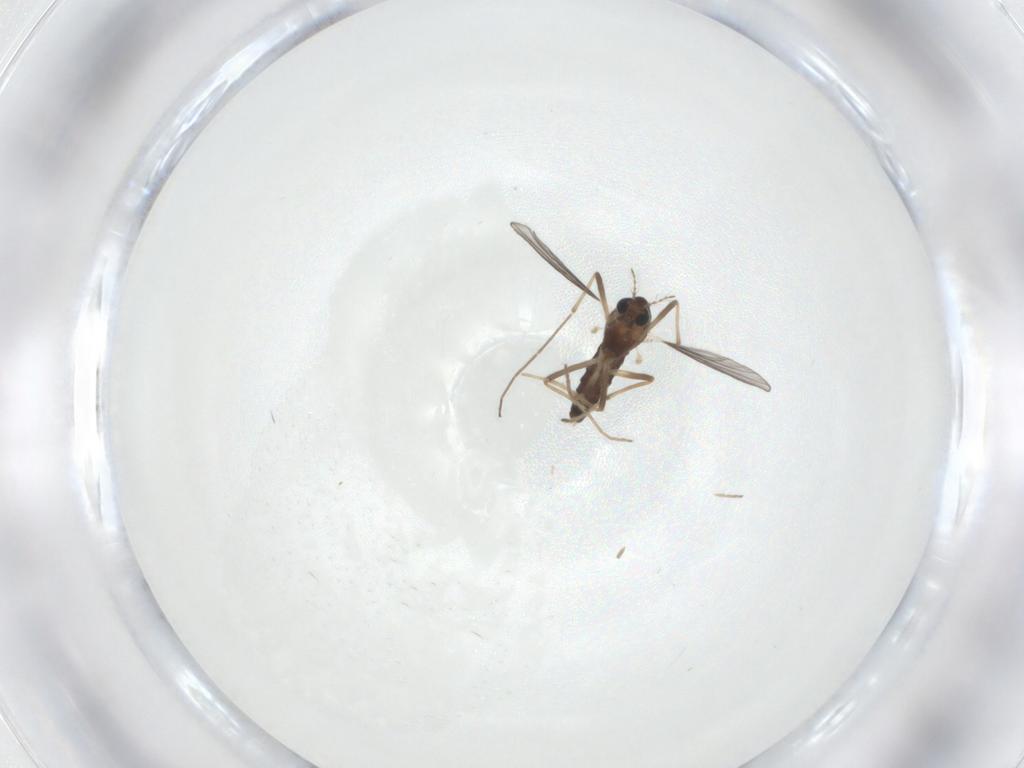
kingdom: Animalia
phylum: Arthropoda
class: Insecta
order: Diptera
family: Chironomidae
